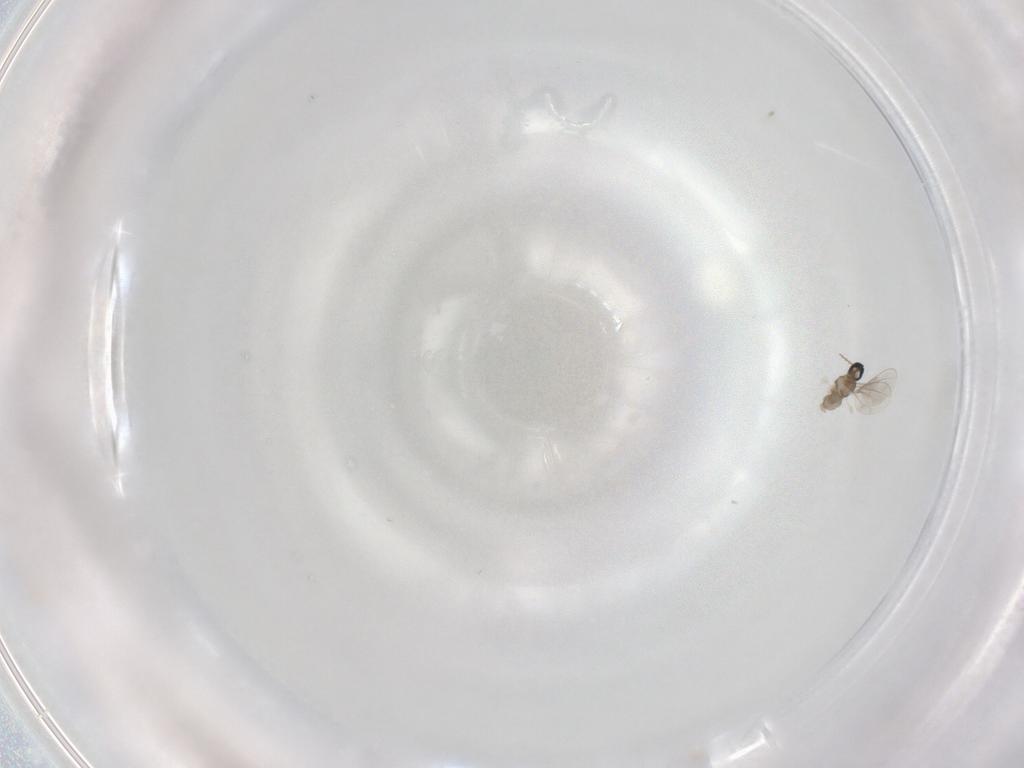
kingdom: Animalia
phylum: Arthropoda
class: Insecta
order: Diptera
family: Cecidomyiidae
